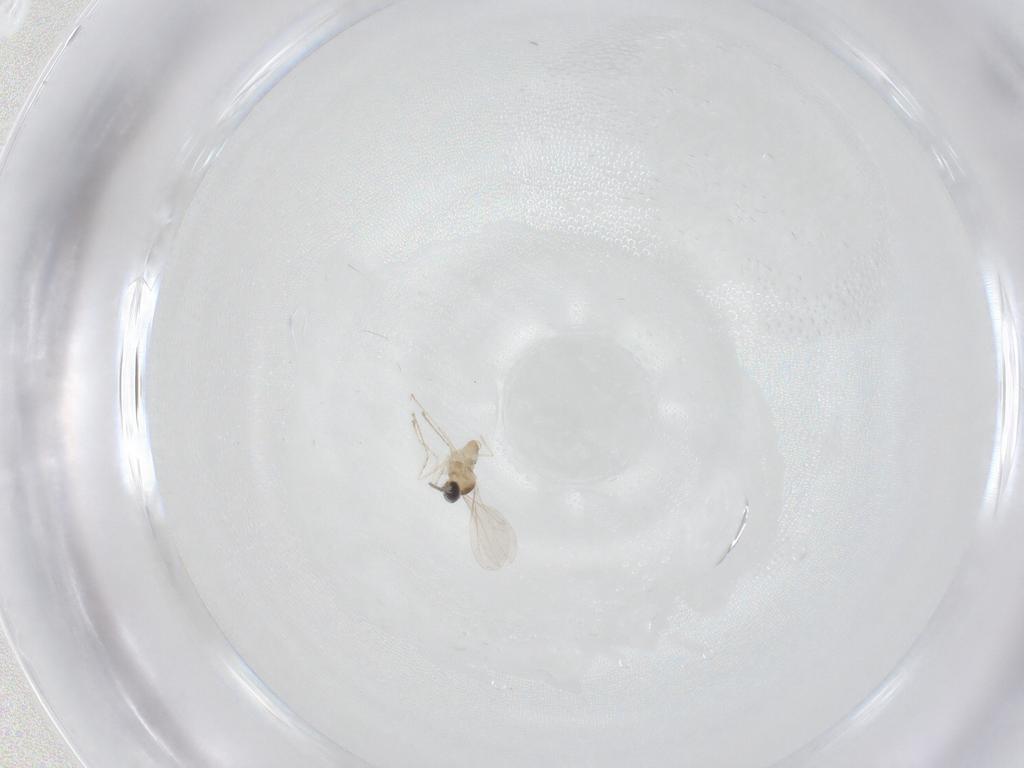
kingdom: Animalia
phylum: Arthropoda
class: Insecta
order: Diptera
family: Cecidomyiidae
